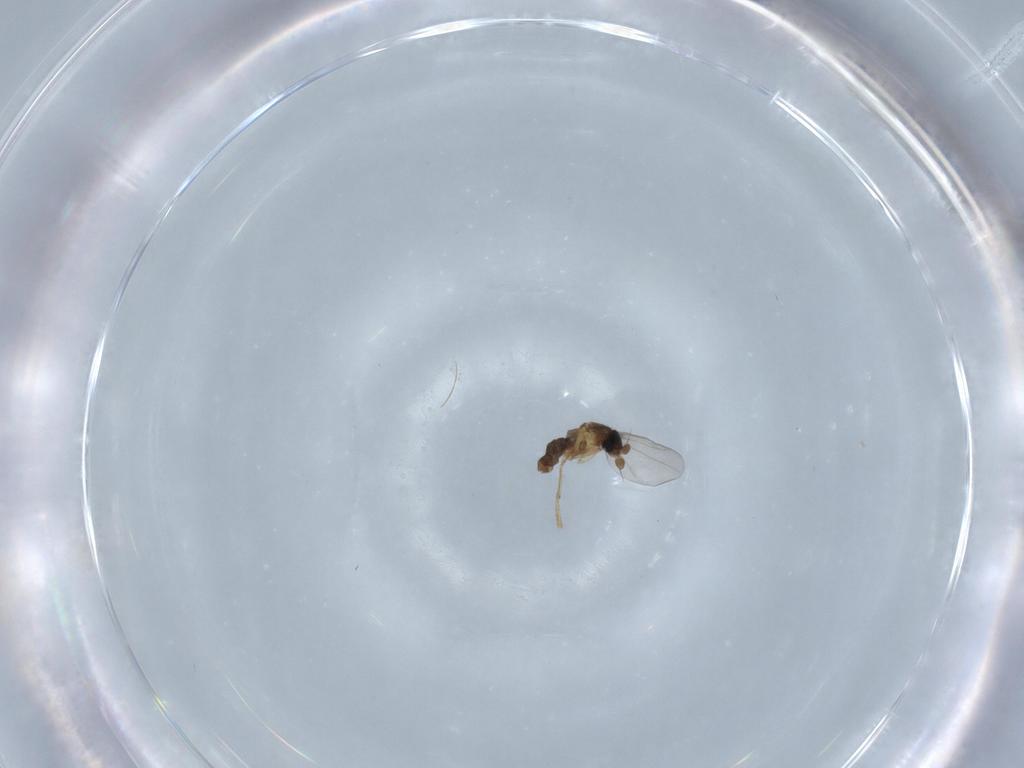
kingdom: Animalia
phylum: Arthropoda
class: Insecta
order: Diptera
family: Phoridae
